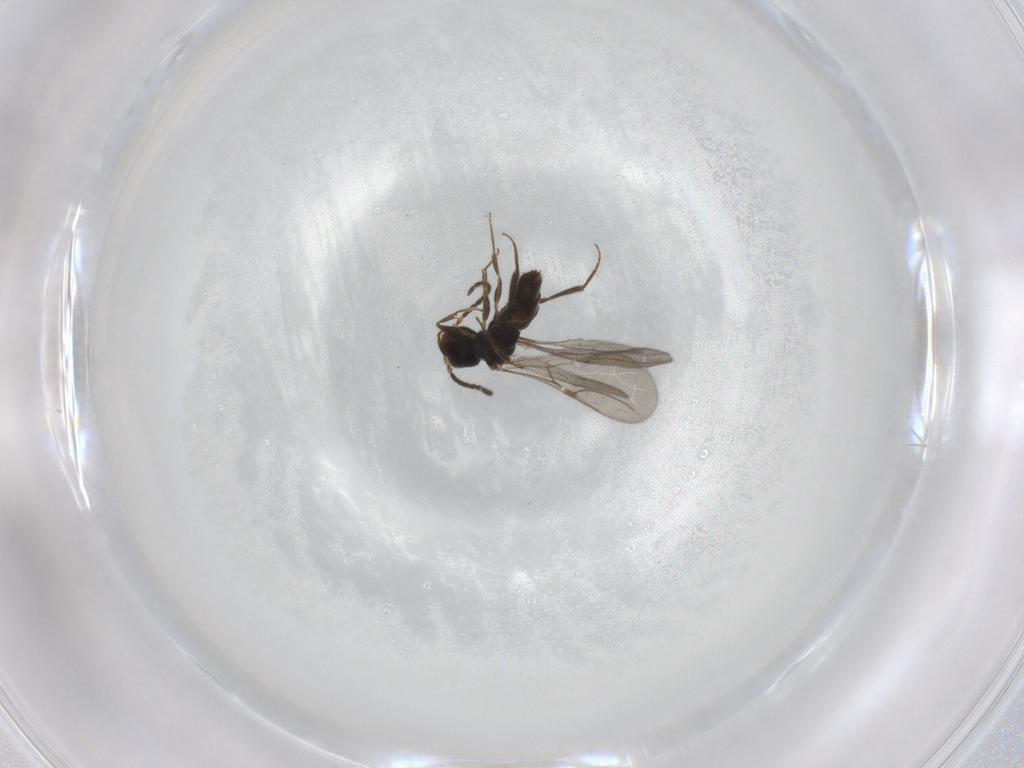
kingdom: Animalia
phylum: Arthropoda
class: Insecta
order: Hymenoptera
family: Bethylidae
